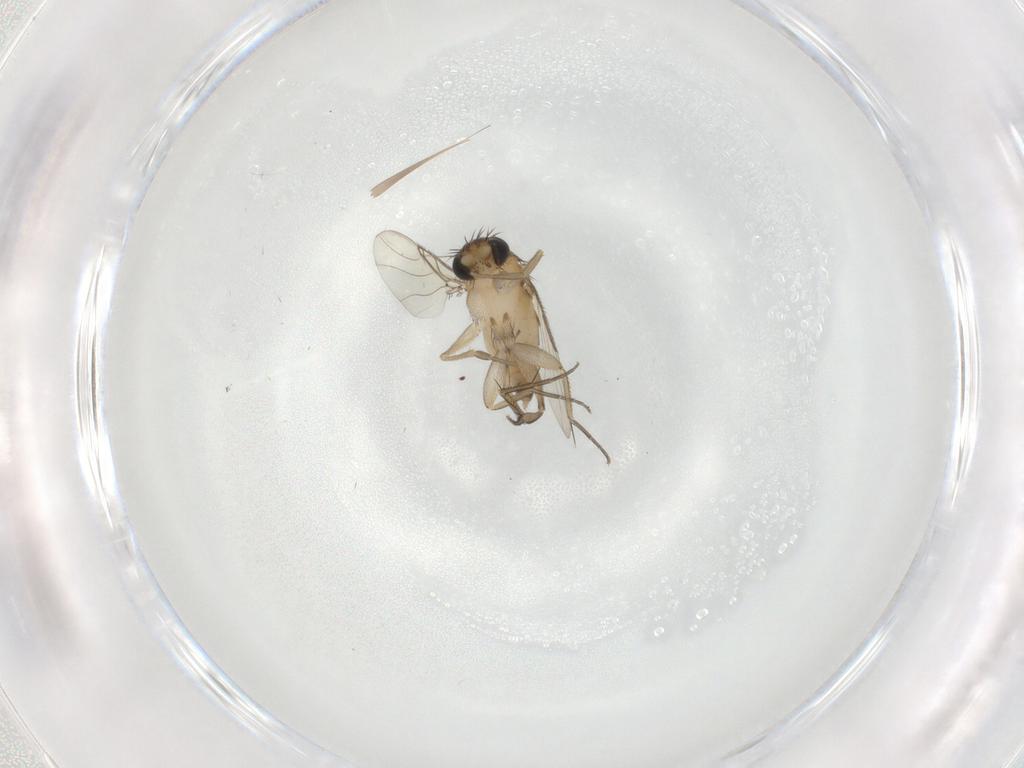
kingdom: Animalia
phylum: Arthropoda
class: Insecta
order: Diptera
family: Phoridae
